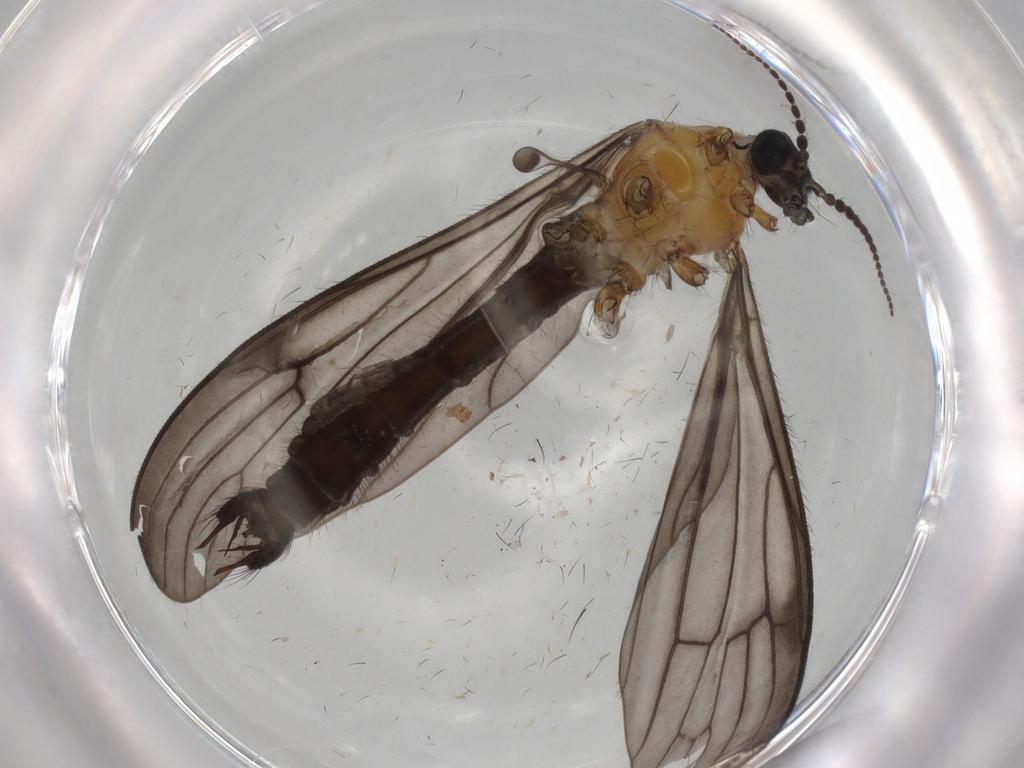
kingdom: Animalia
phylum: Arthropoda
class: Insecta
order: Diptera
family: Limoniidae
